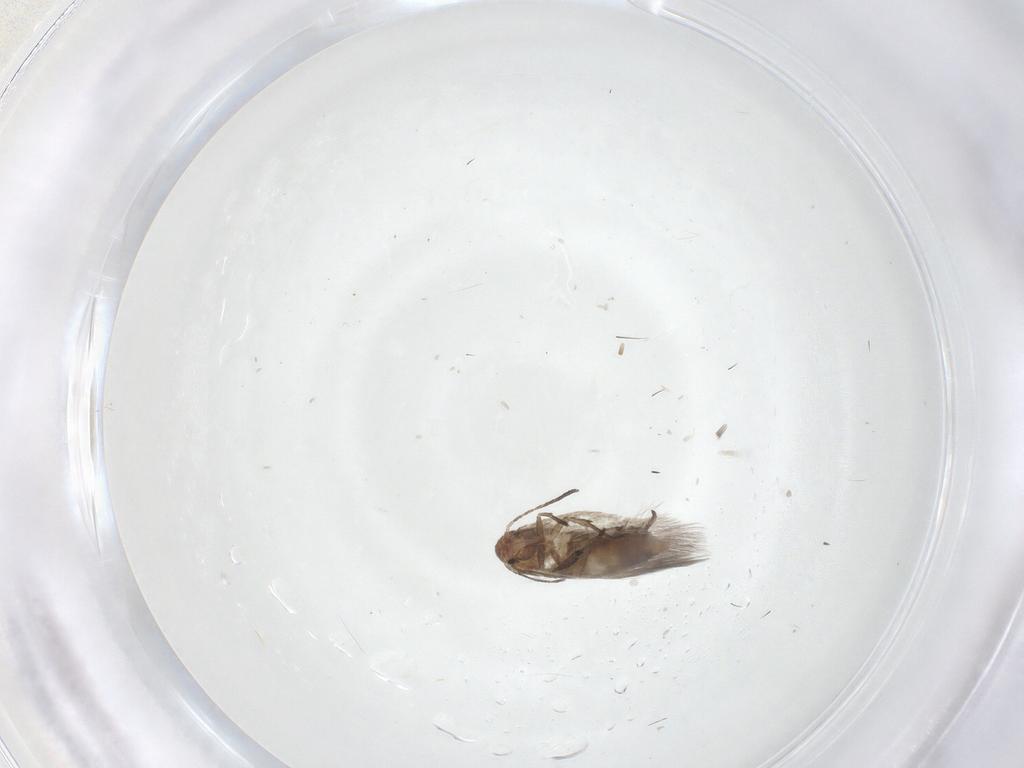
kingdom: Animalia
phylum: Arthropoda
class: Insecta
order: Lepidoptera
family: Lyonetiidae
